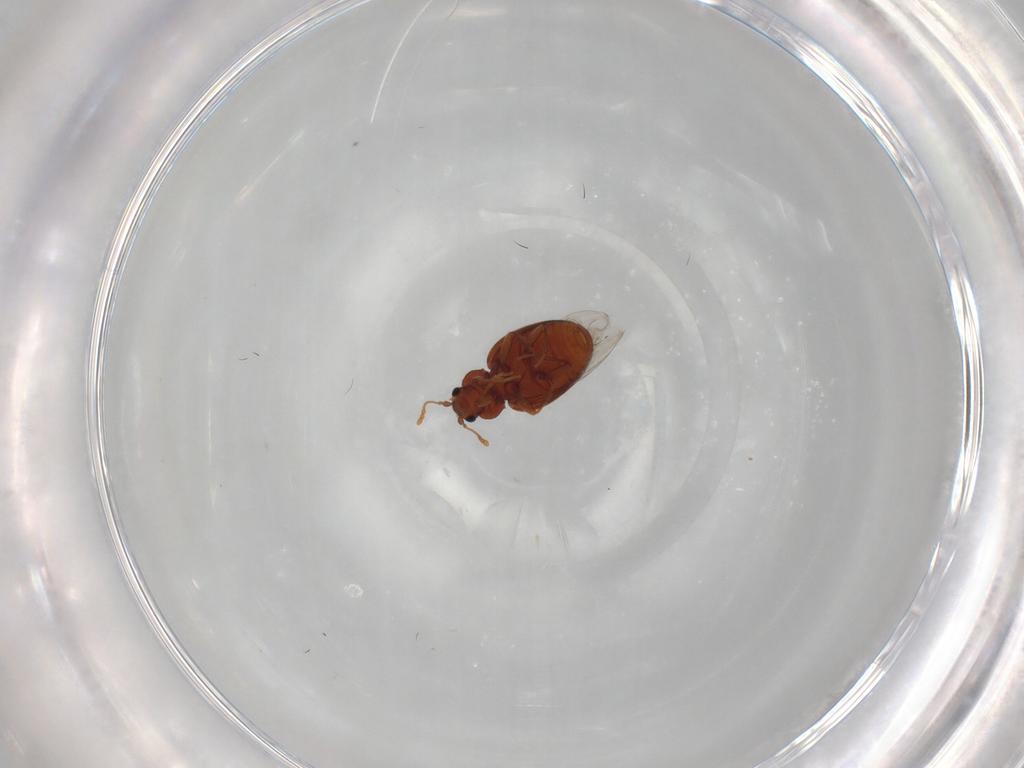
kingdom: Animalia
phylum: Arthropoda
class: Insecta
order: Coleoptera
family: Latridiidae
